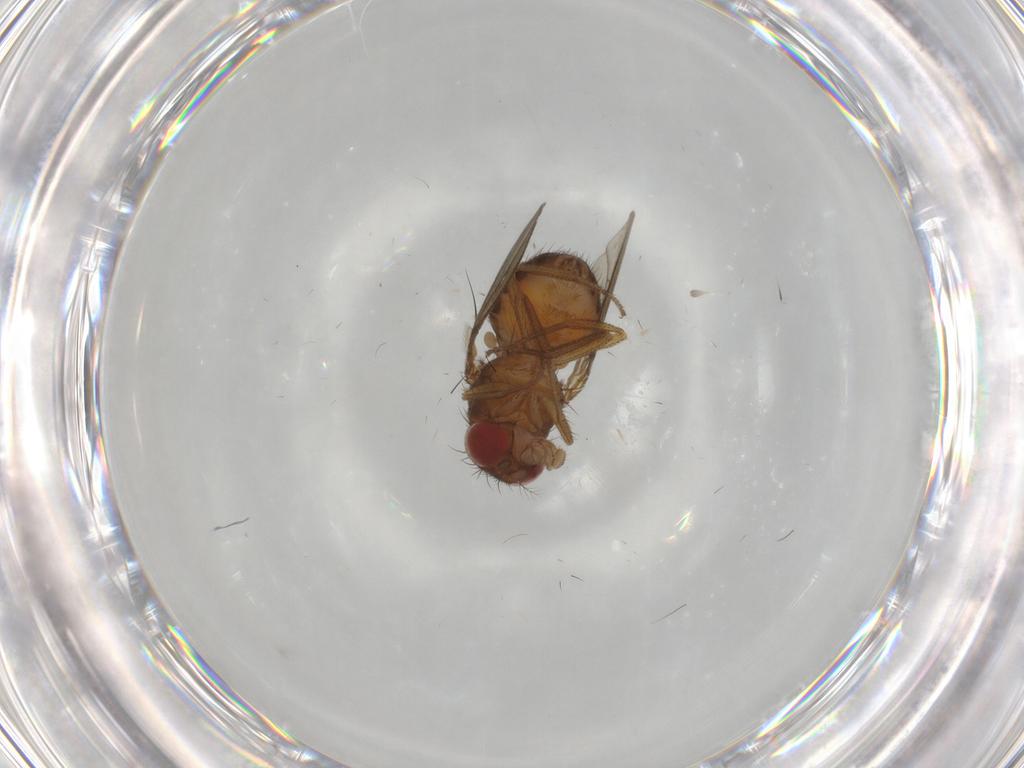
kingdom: Animalia
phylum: Arthropoda
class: Insecta
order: Diptera
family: Drosophilidae
